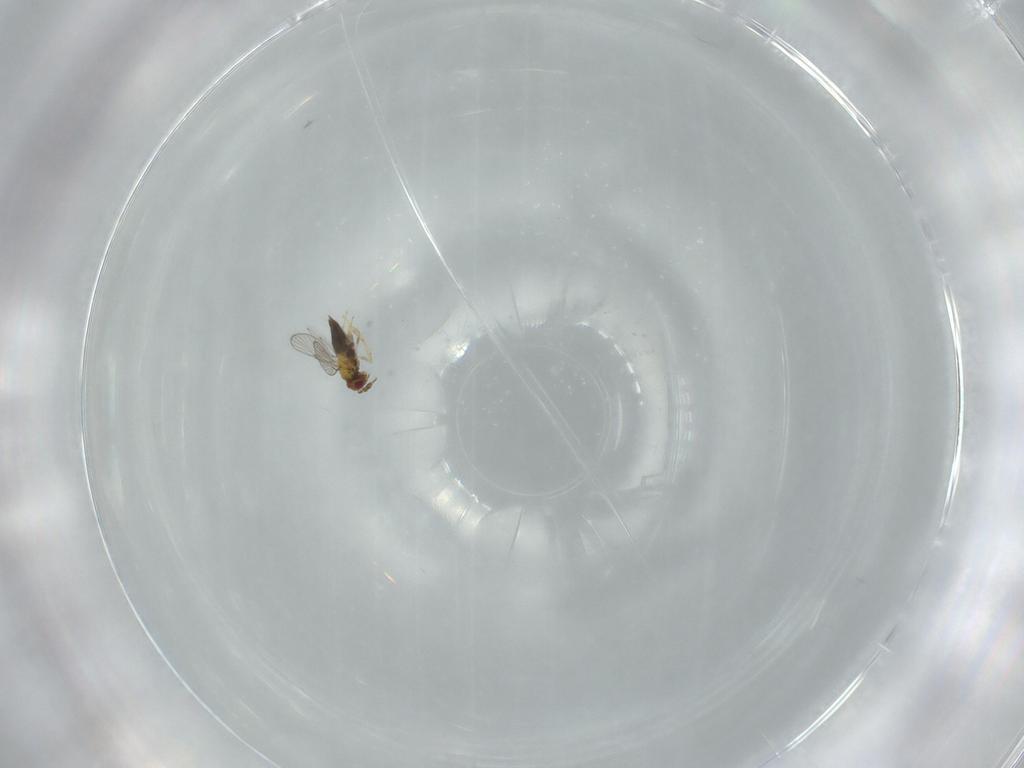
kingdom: Animalia
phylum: Arthropoda
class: Insecta
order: Hymenoptera
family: Trichogrammatidae
